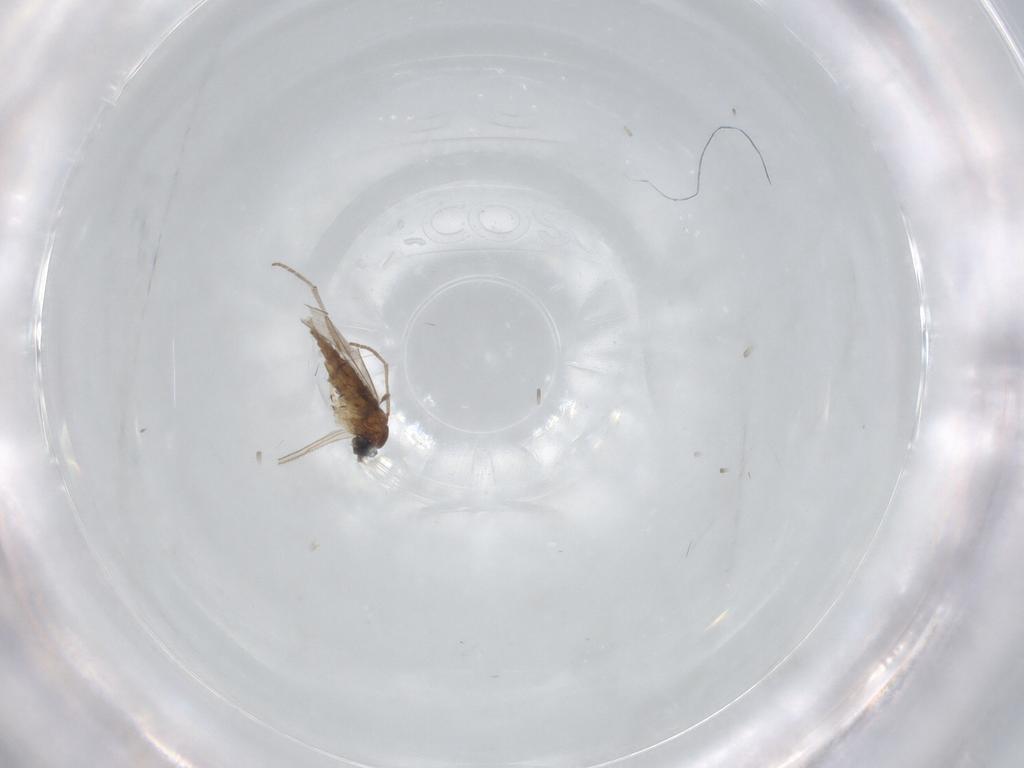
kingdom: Animalia
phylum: Arthropoda
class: Insecta
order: Diptera
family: Sciaridae
